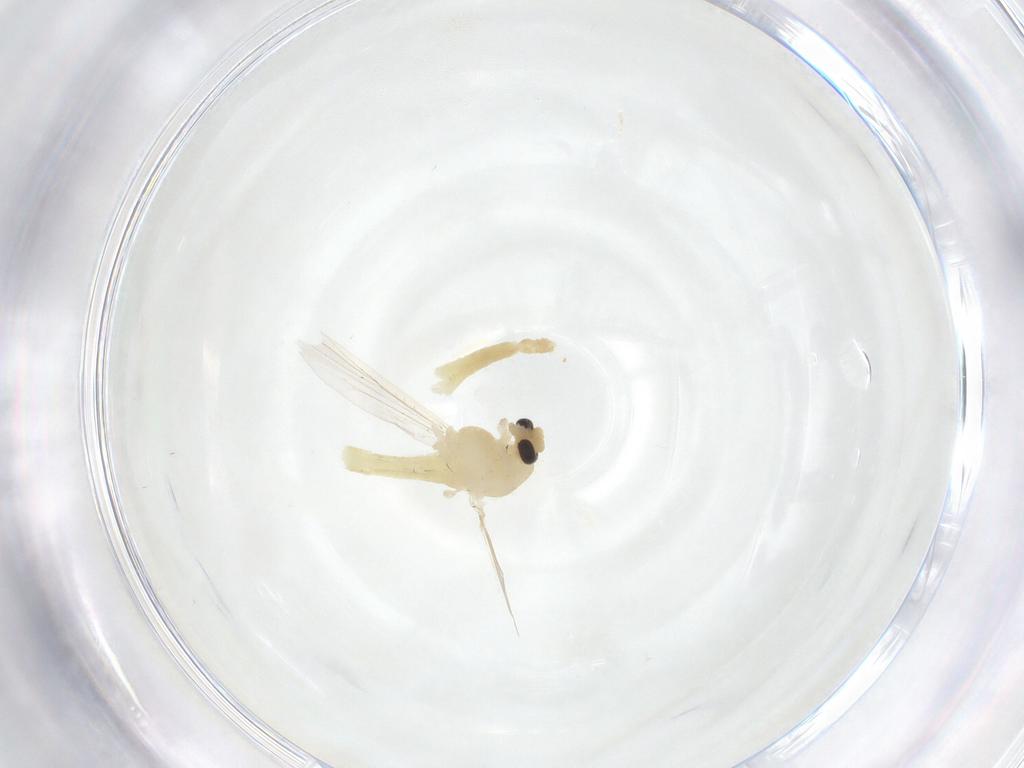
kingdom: Animalia
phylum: Arthropoda
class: Insecta
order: Diptera
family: Chironomidae
